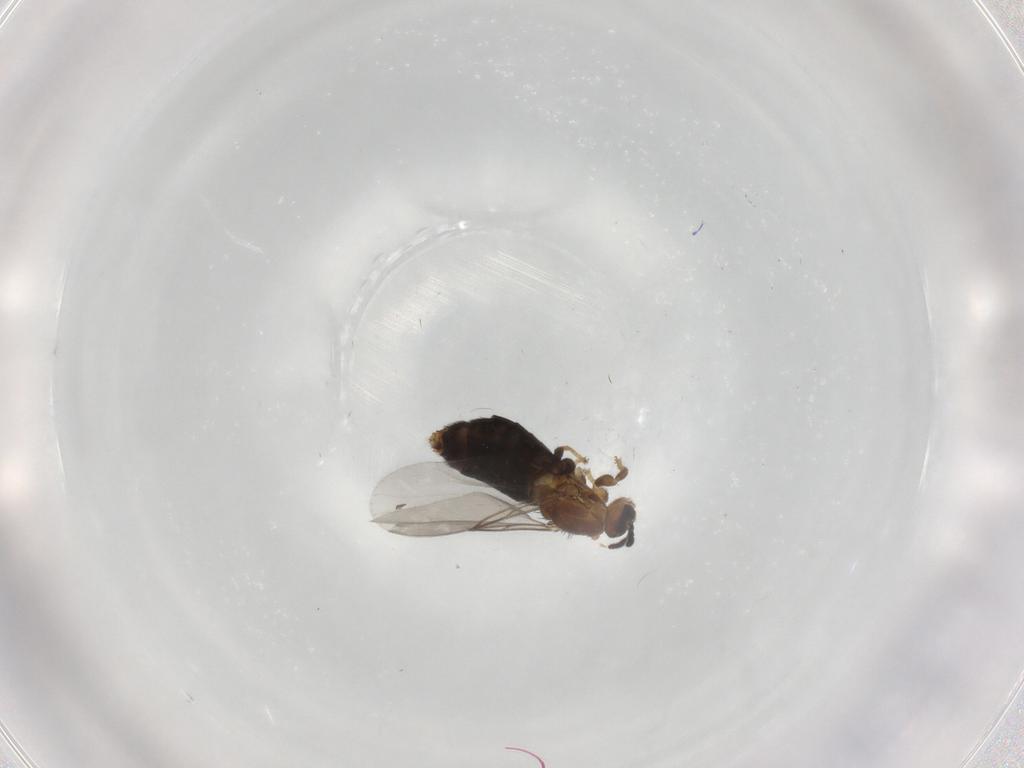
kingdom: Animalia
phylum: Arthropoda
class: Insecta
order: Diptera
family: Scatopsidae
